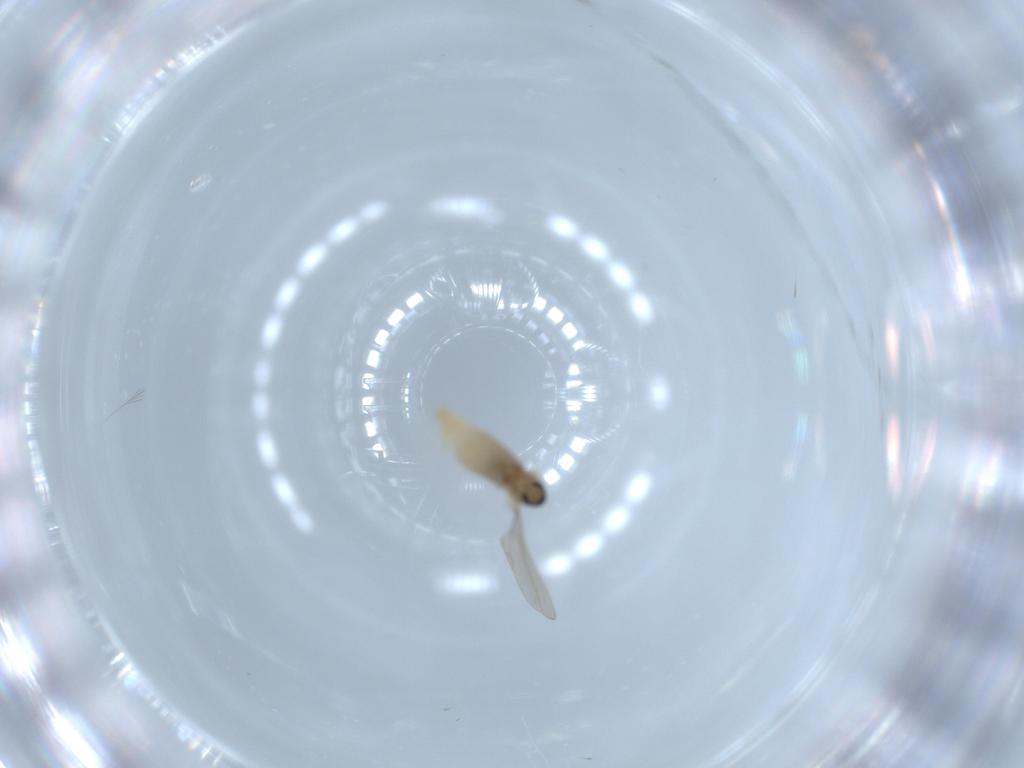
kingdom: Animalia
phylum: Arthropoda
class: Insecta
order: Diptera
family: Cecidomyiidae
